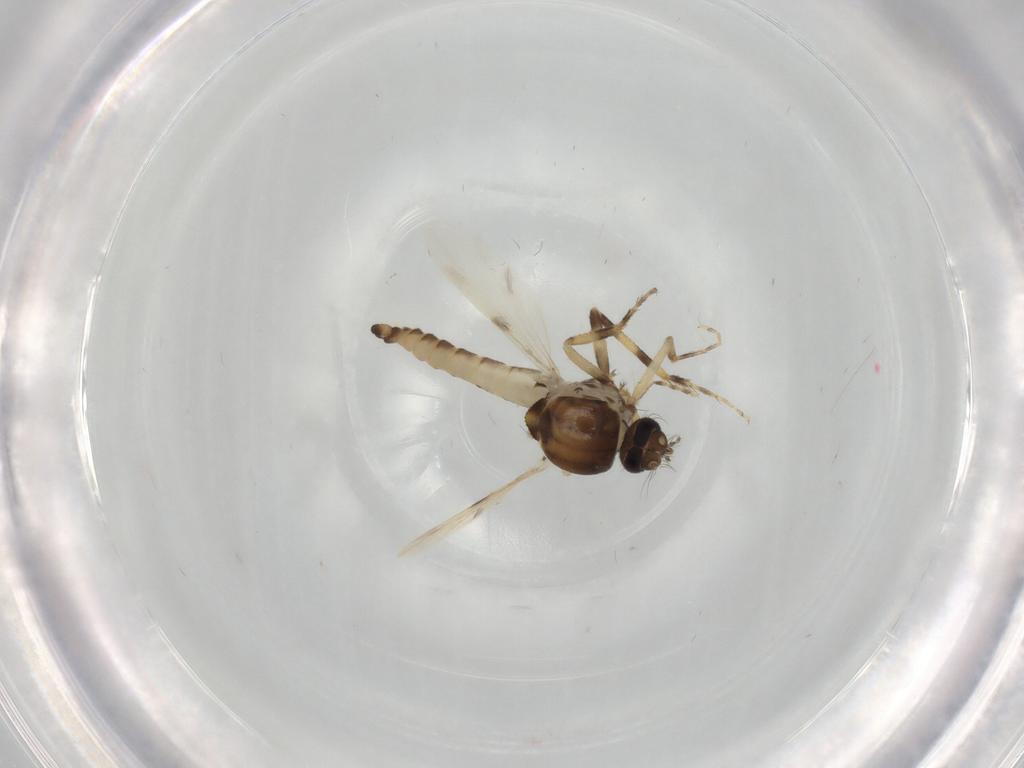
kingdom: Animalia
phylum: Arthropoda
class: Insecta
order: Diptera
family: Ceratopogonidae
